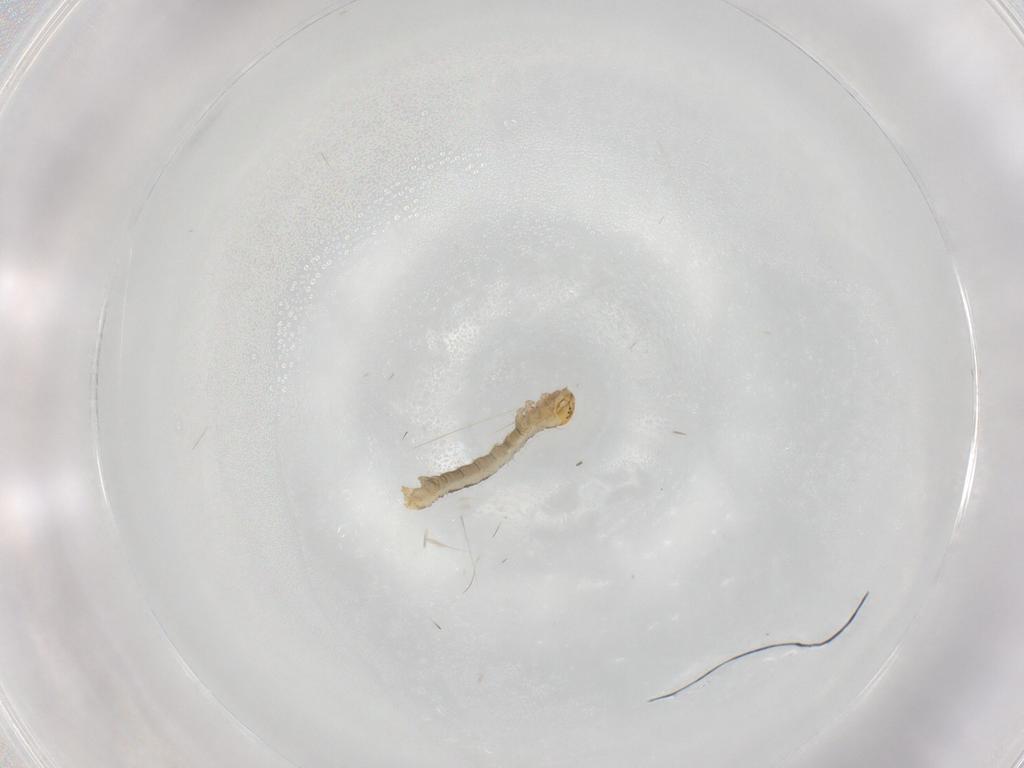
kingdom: Animalia
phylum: Arthropoda
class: Insecta
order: Lepidoptera
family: Geometridae
